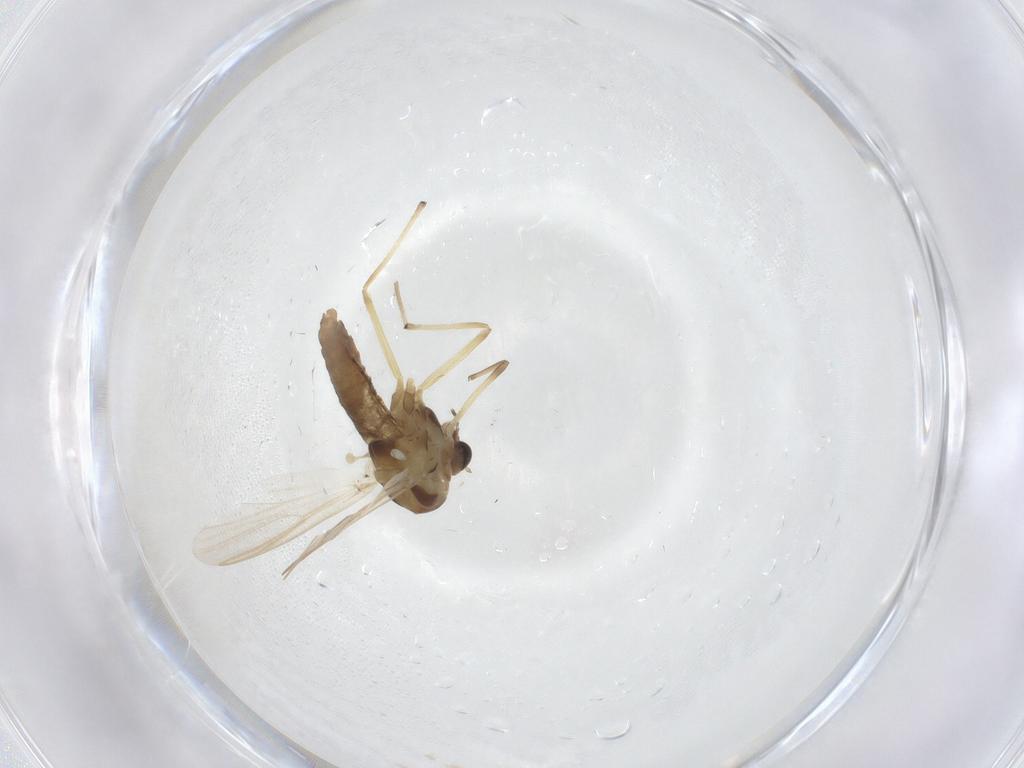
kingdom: Animalia
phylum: Arthropoda
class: Insecta
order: Diptera
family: Chironomidae
